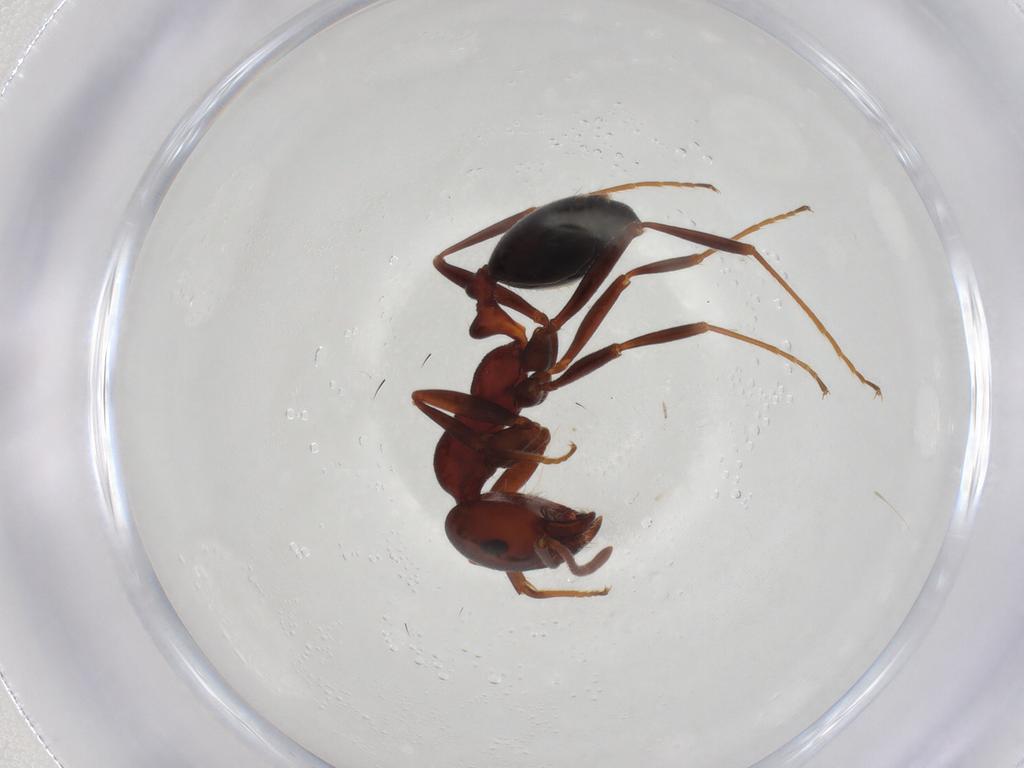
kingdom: Animalia
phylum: Arthropoda
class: Insecta
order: Hymenoptera
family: Formicidae
